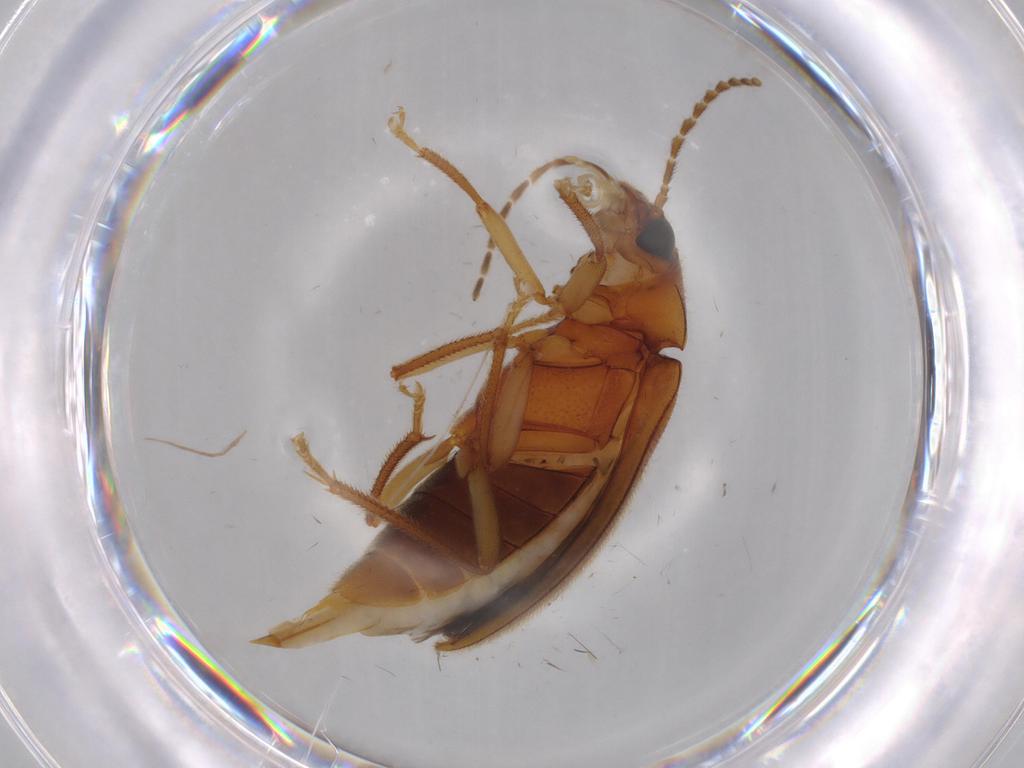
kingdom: Animalia
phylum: Arthropoda
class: Insecta
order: Coleoptera
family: Ptilodactylidae
